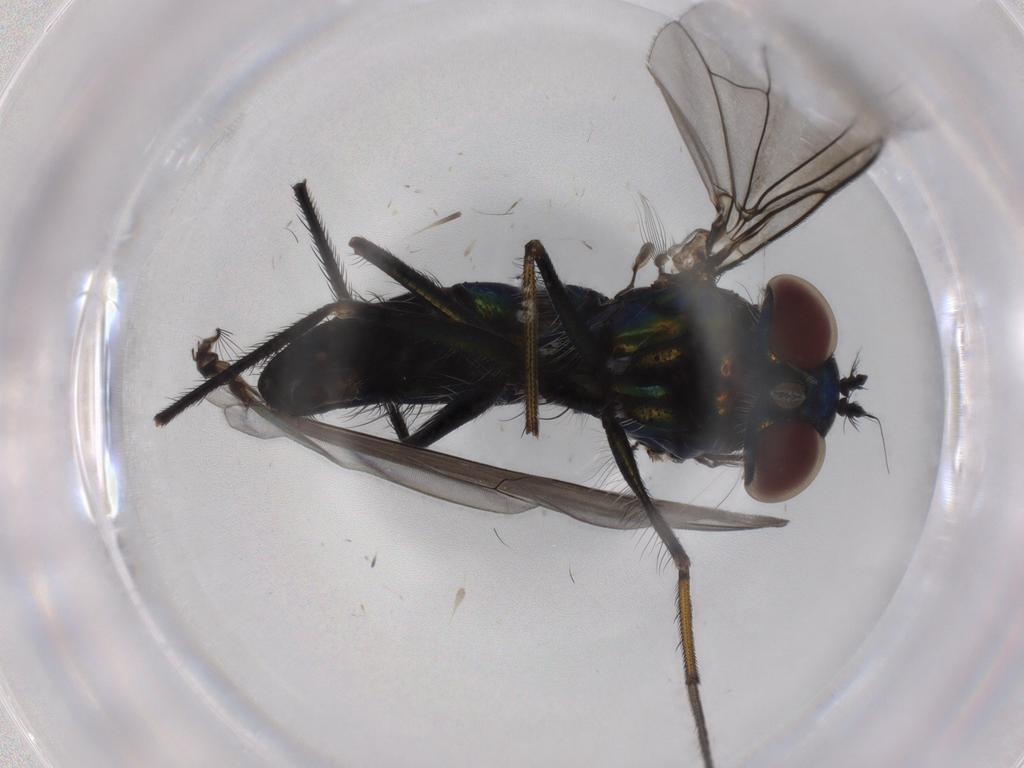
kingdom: Animalia
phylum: Arthropoda
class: Insecta
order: Diptera
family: Dolichopodidae
